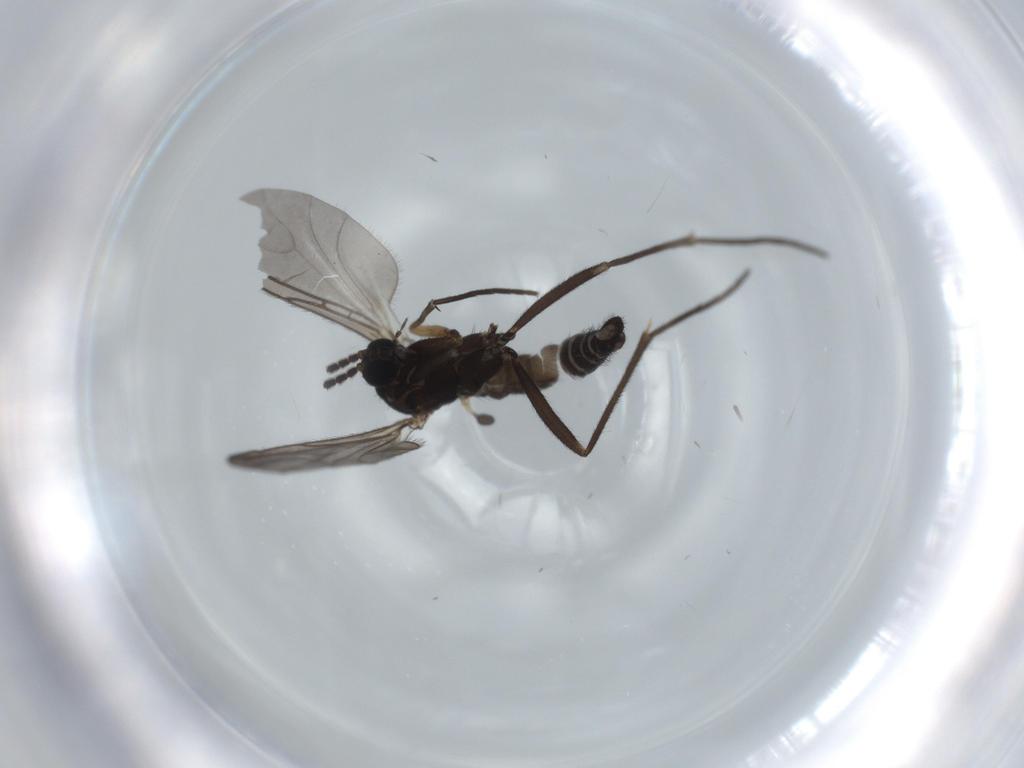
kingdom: Animalia
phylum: Arthropoda
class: Insecta
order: Diptera
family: Sciaridae
